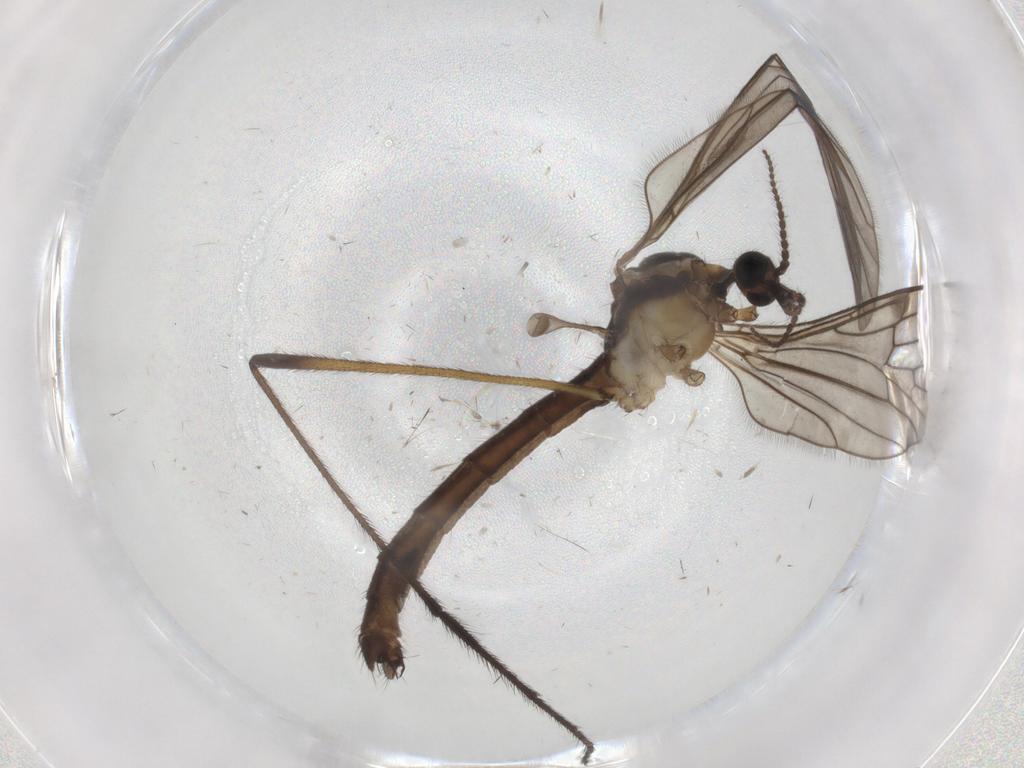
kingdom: Animalia
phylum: Arthropoda
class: Insecta
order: Diptera
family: Limoniidae
